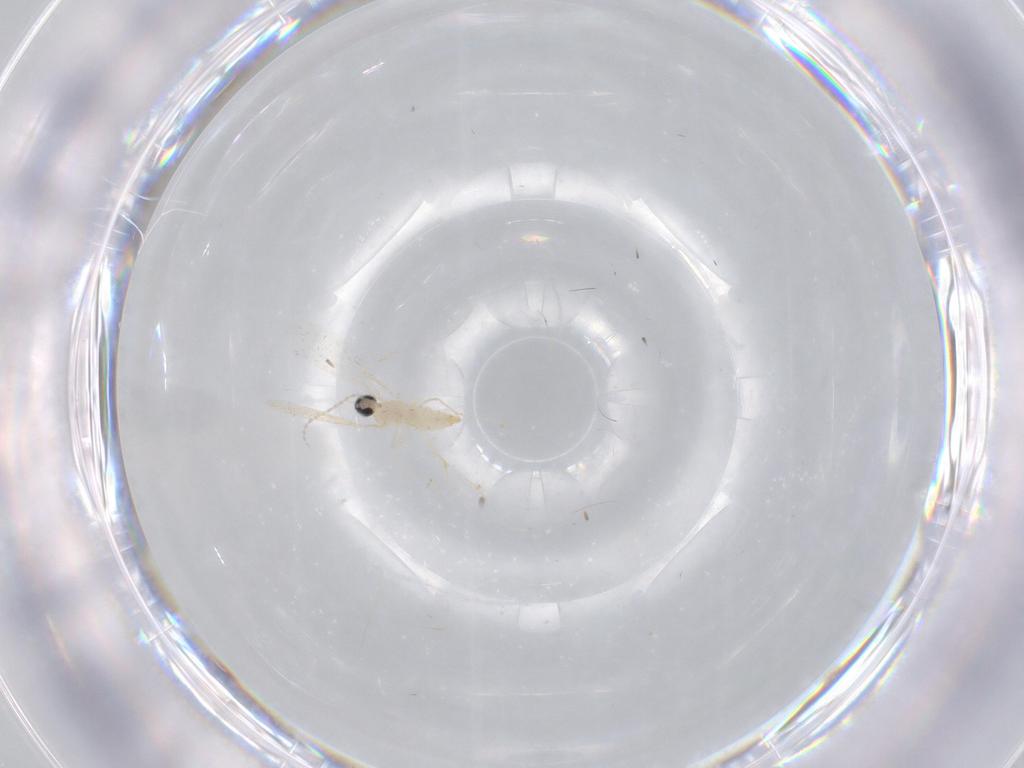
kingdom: Animalia
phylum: Arthropoda
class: Insecta
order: Diptera
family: Cecidomyiidae
